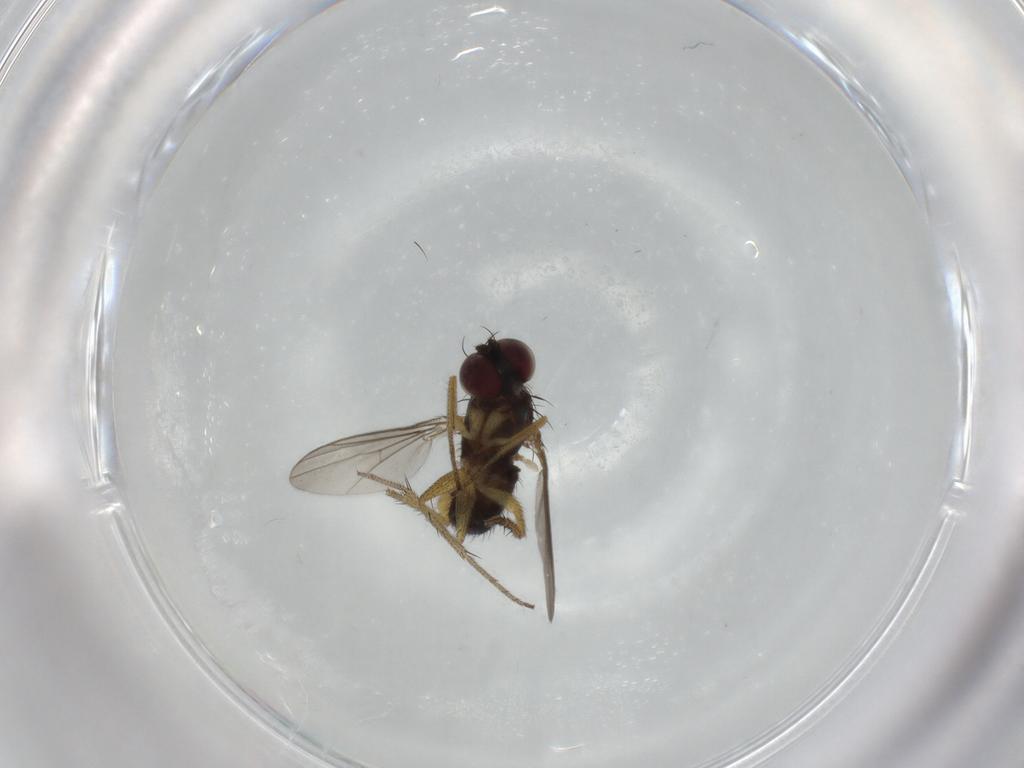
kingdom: Animalia
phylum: Arthropoda
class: Insecta
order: Diptera
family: Dolichopodidae
